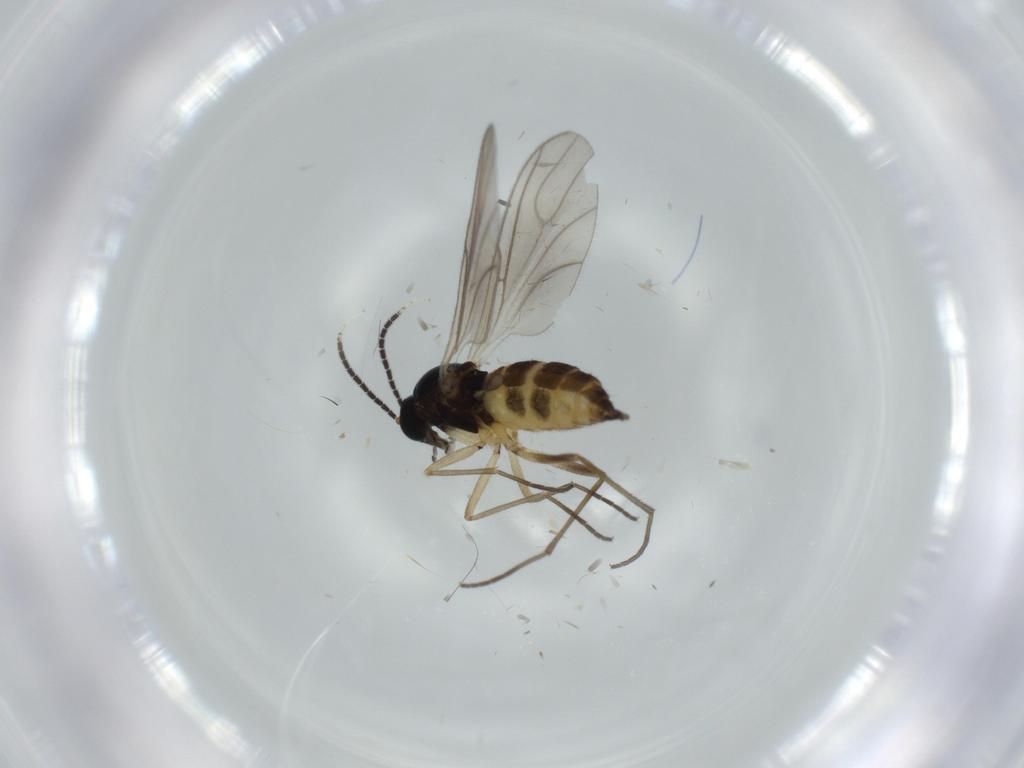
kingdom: Animalia
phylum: Arthropoda
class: Insecta
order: Diptera
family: Sciaridae
